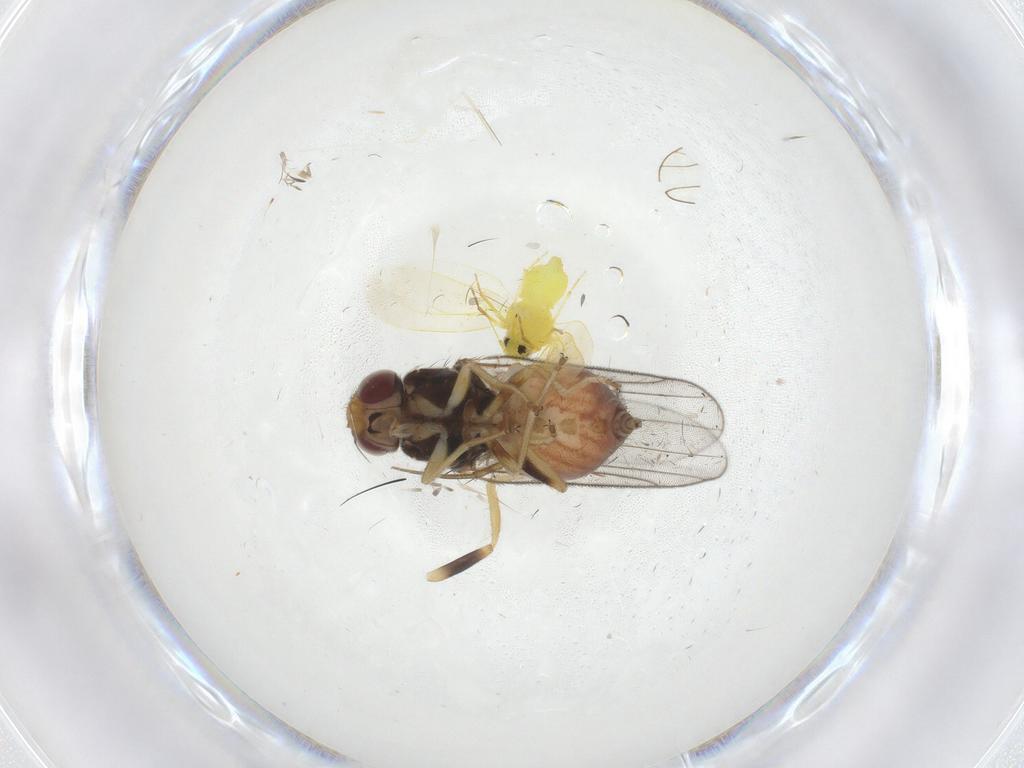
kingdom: Animalia
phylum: Arthropoda
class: Insecta
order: Diptera
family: Chloropidae
